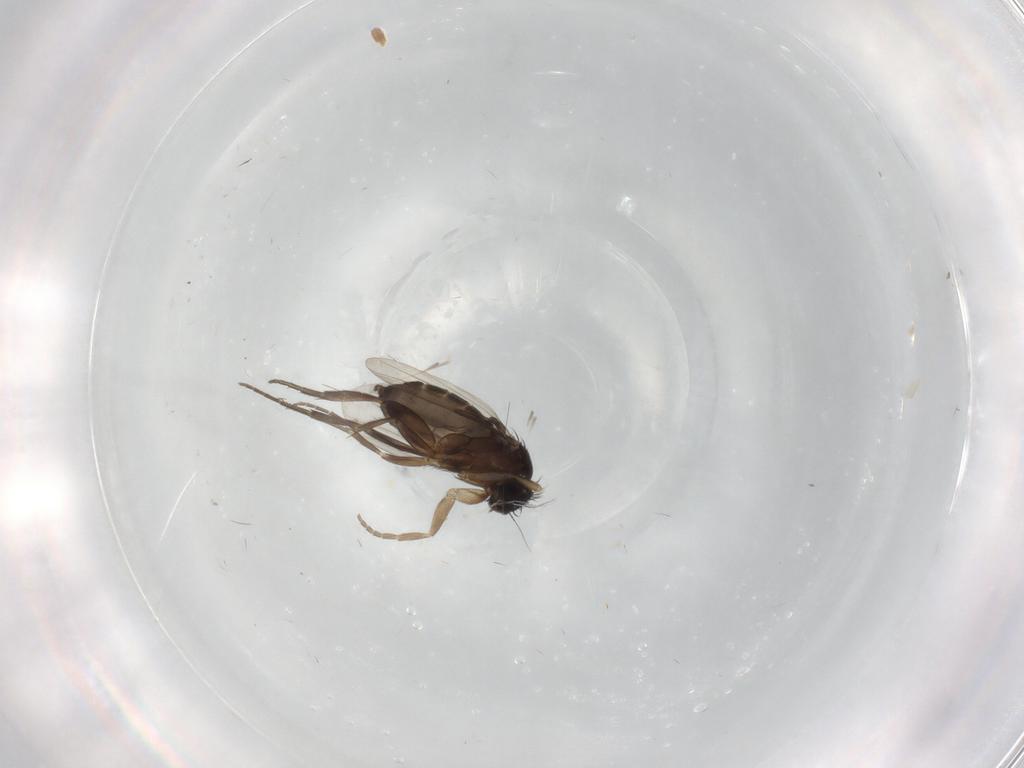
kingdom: Animalia
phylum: Arthropoda
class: Insecta
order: Diptera
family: Phoridae
